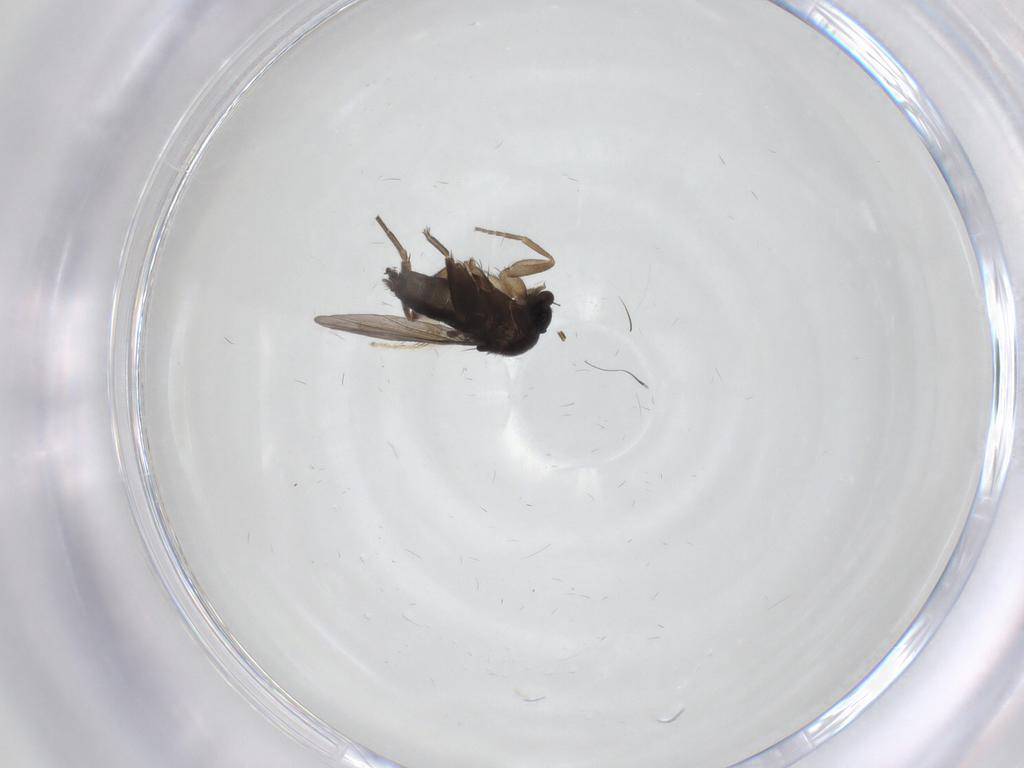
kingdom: Animalia
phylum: Arthropoda
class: Insecta
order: Diptera
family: Phoridae
